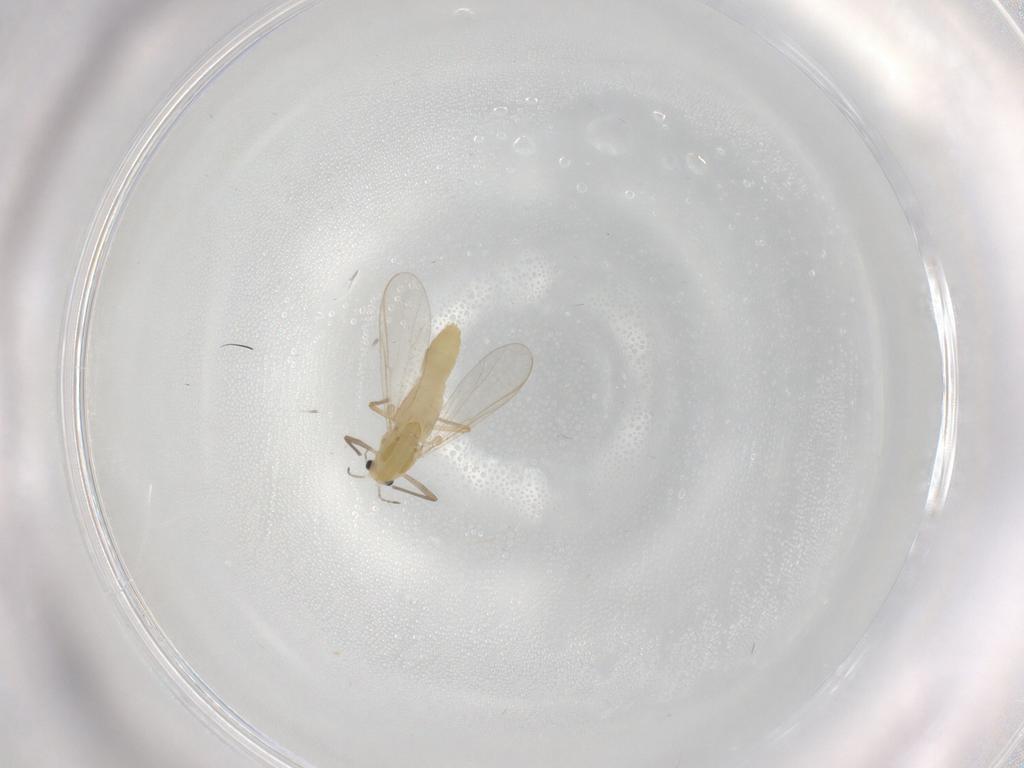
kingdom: Animalia
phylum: Arthropoda
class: Insecta
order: Diptera
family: Chironomidae
